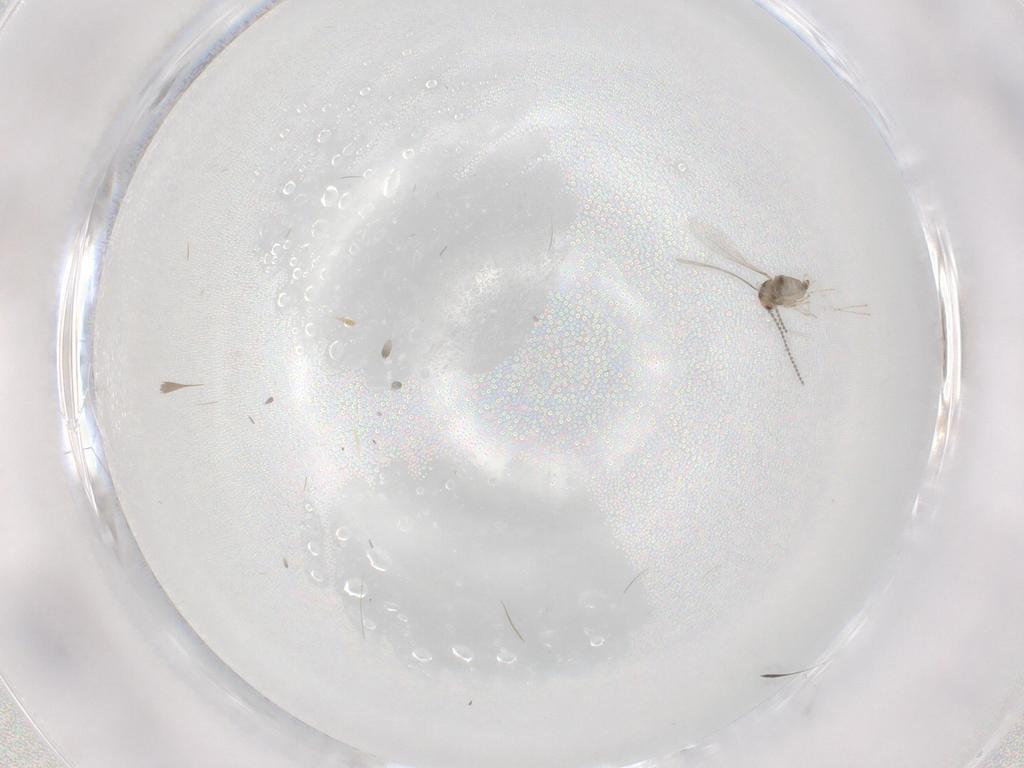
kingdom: Animalia
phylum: Arthropoda
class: Insecta
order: Diptera
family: Cecidomyiidae
